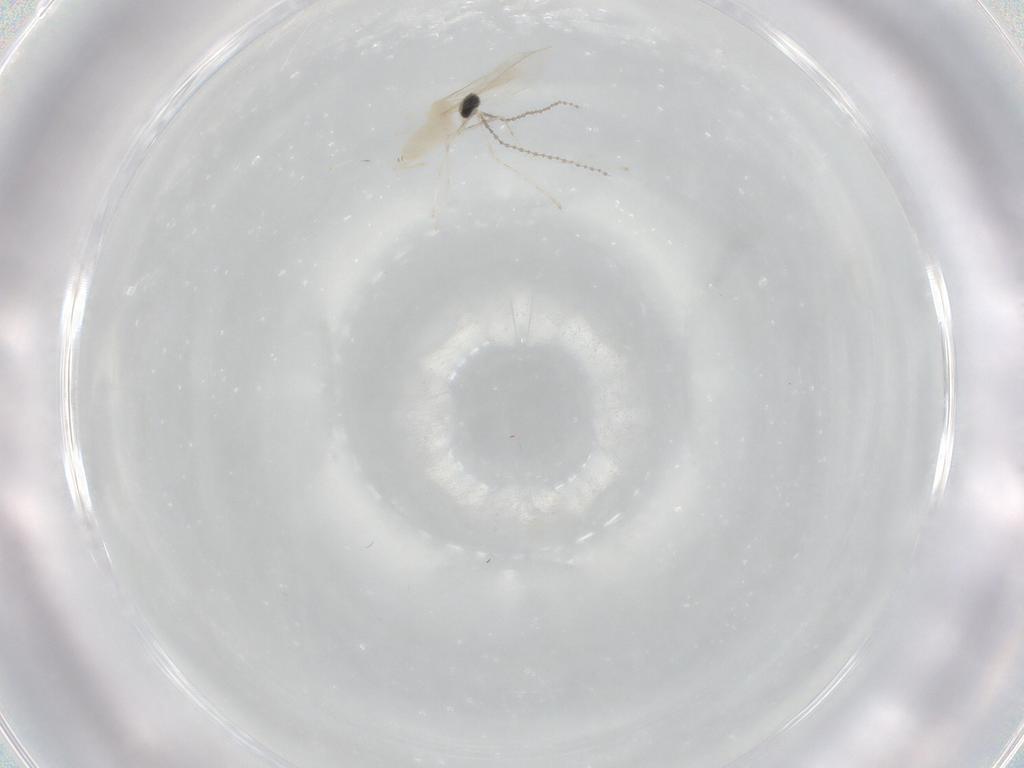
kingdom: Animalia
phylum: Arthropoda
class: Insecta
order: Diptera
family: Cecidomyiidae
